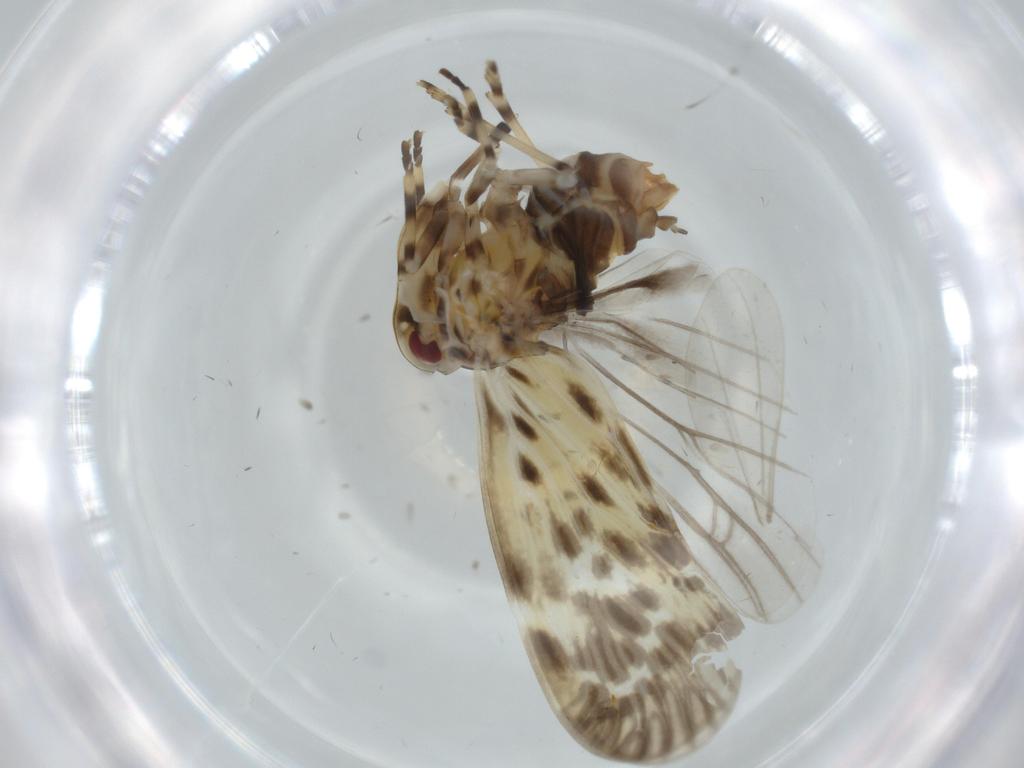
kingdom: Animalia
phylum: Arthropoda
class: Insecta
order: Hemiptera
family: Derbidae
